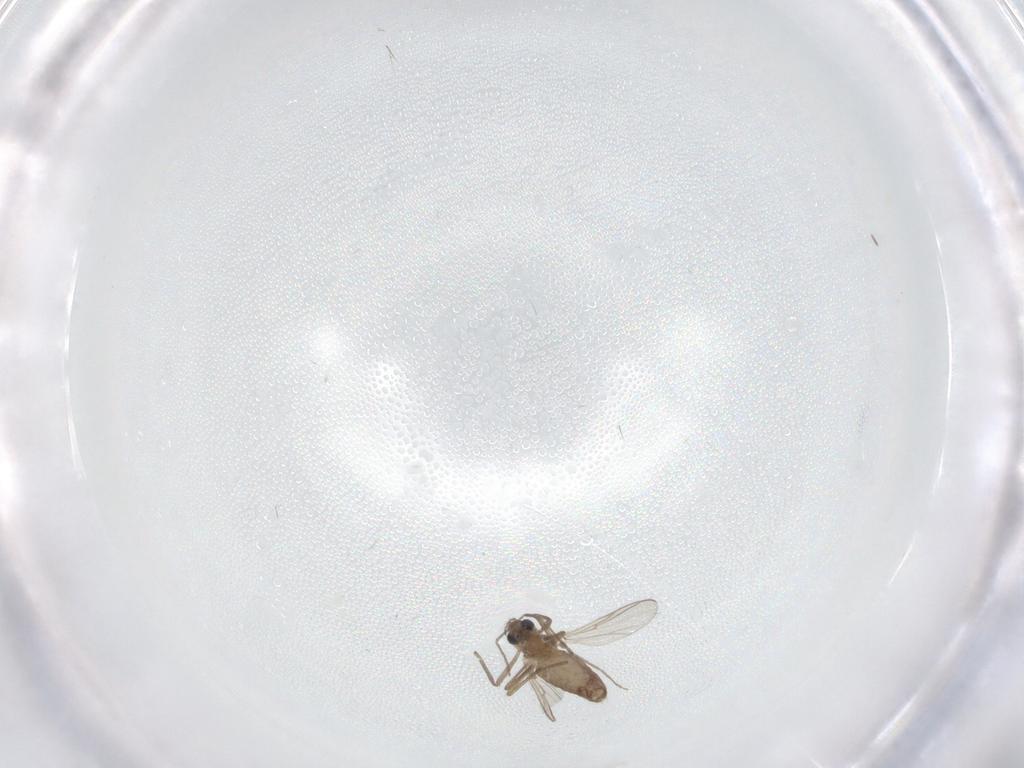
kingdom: Animalia
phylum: Arthropoda
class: Insecta
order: Diptera
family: Chironomidae
